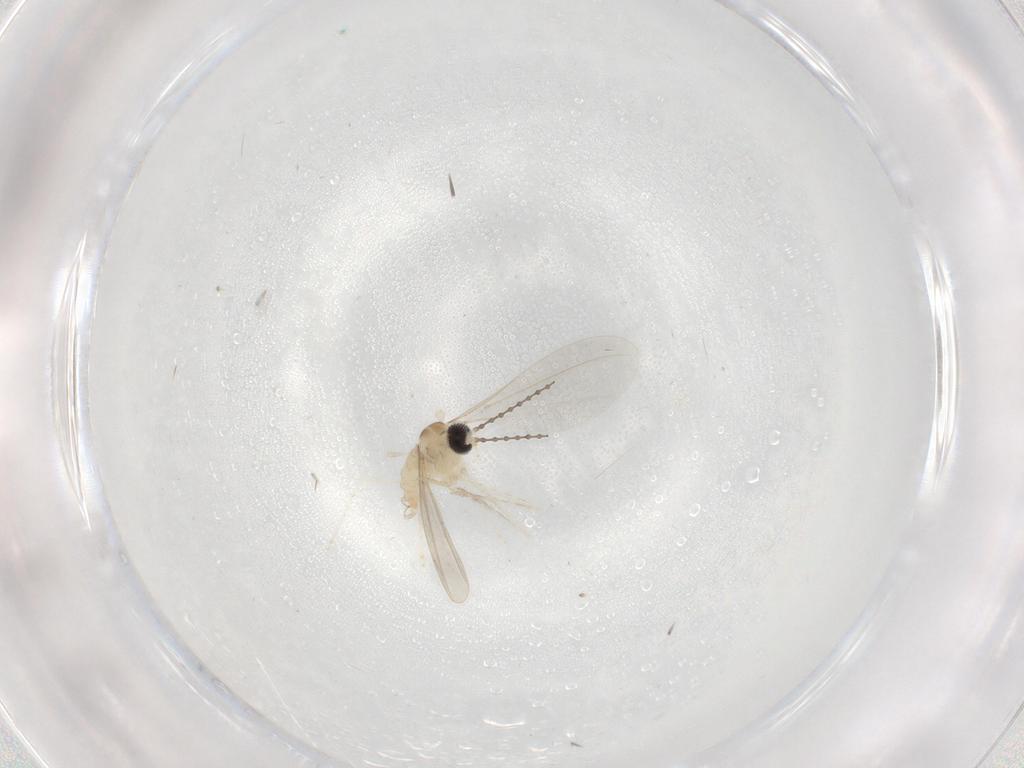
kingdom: Animalia
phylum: Arthropoda
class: Insecta
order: Diptera
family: Cecidomyiidae
